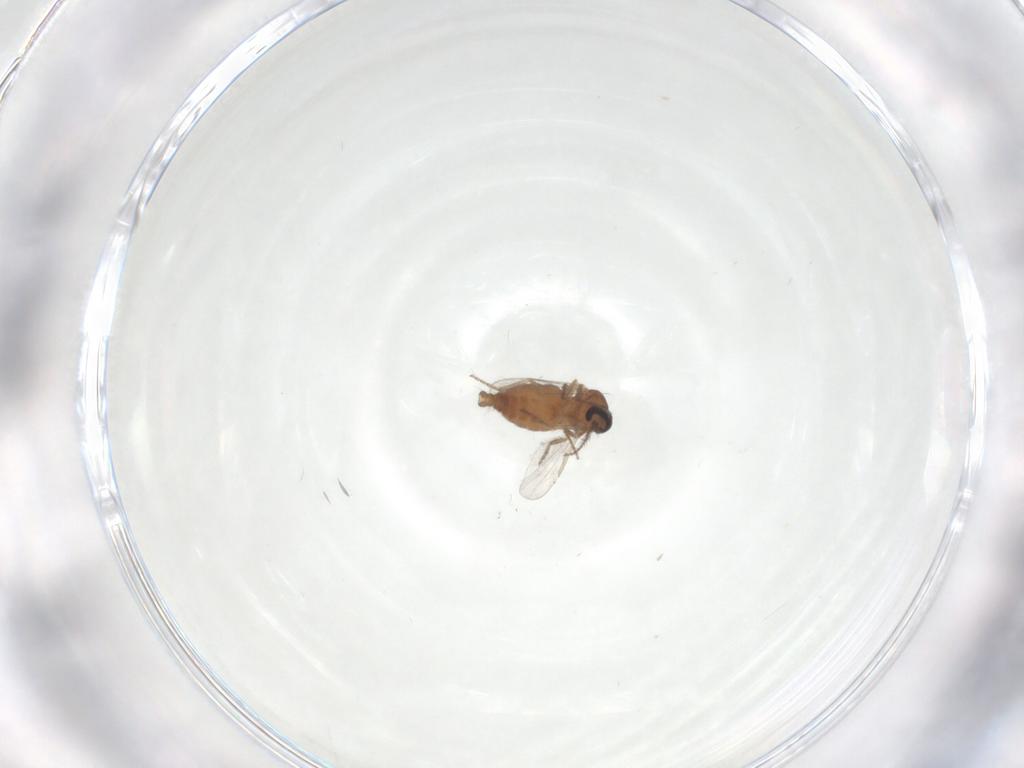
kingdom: Animalia
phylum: Arthropoda
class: Insecta
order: Diptera
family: Ceratopogonidae
